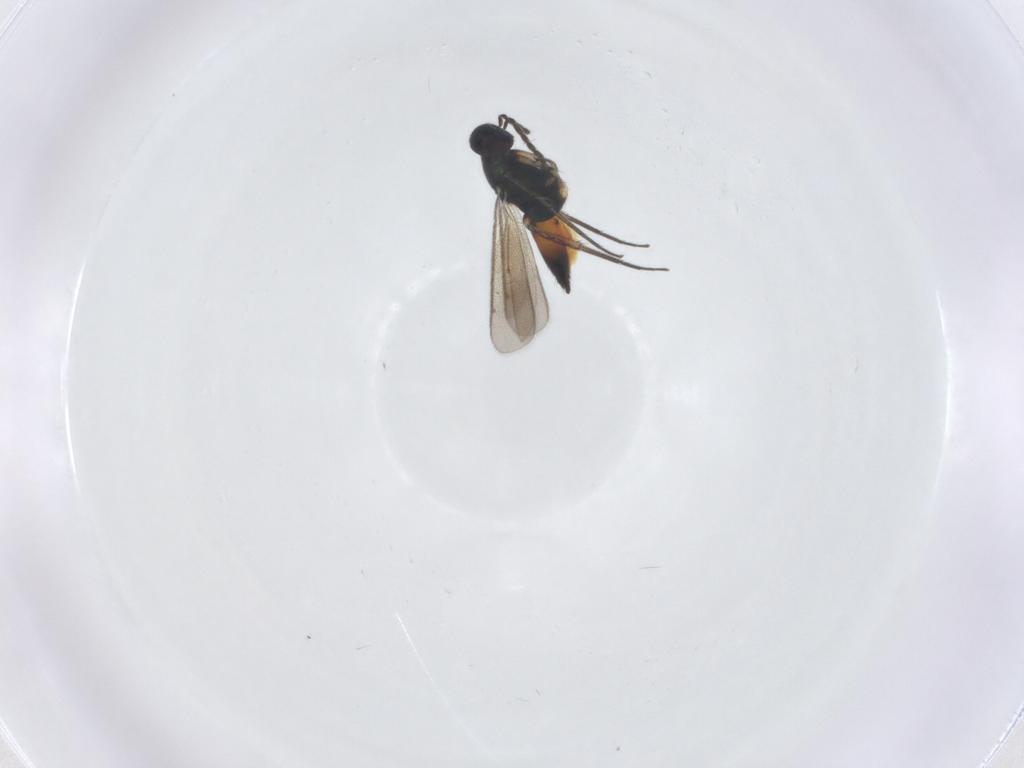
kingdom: Animalia
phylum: Arthropoda
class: Insecta
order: Hymenoptera
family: Eulophidae
